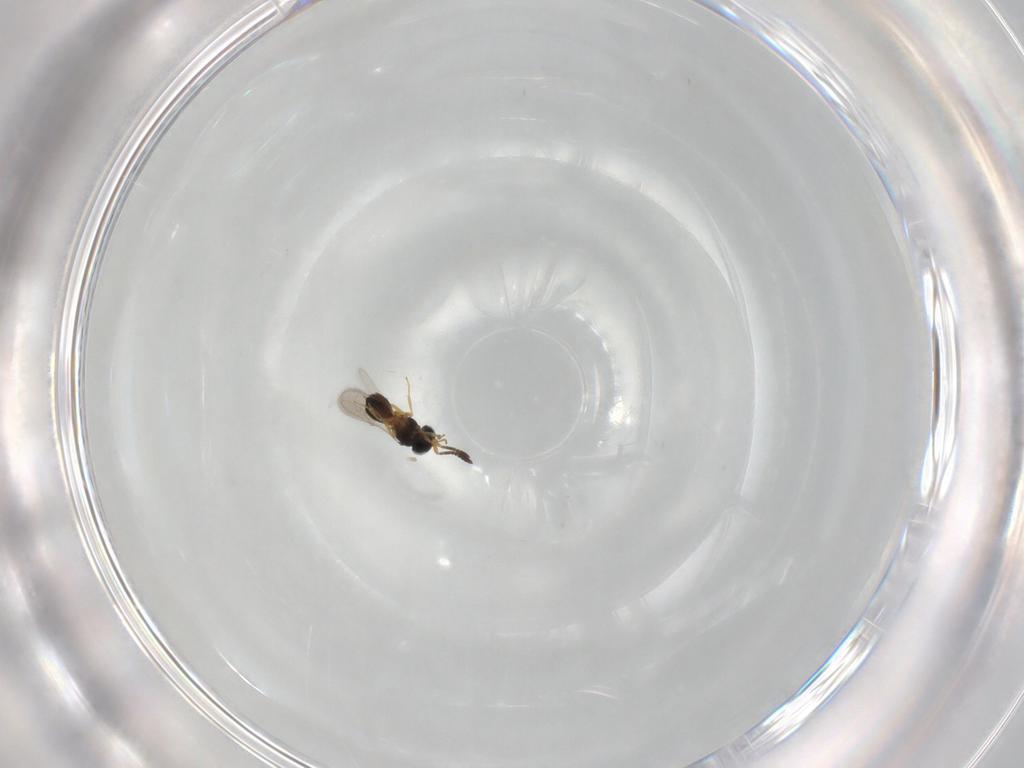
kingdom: Animalia
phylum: Arthropoda
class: Insecta
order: Hymenoptera
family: Scelionidae
